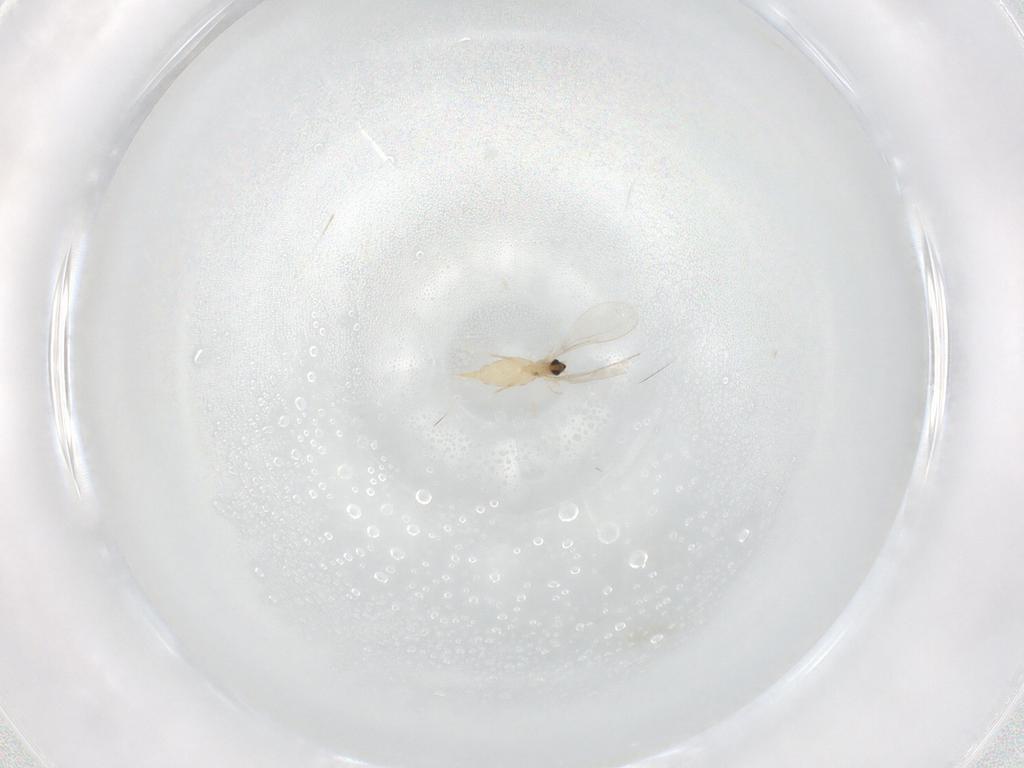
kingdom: Animalia
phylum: Arthropoda
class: Insecta
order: Diptera
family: Cecidomyiidae
